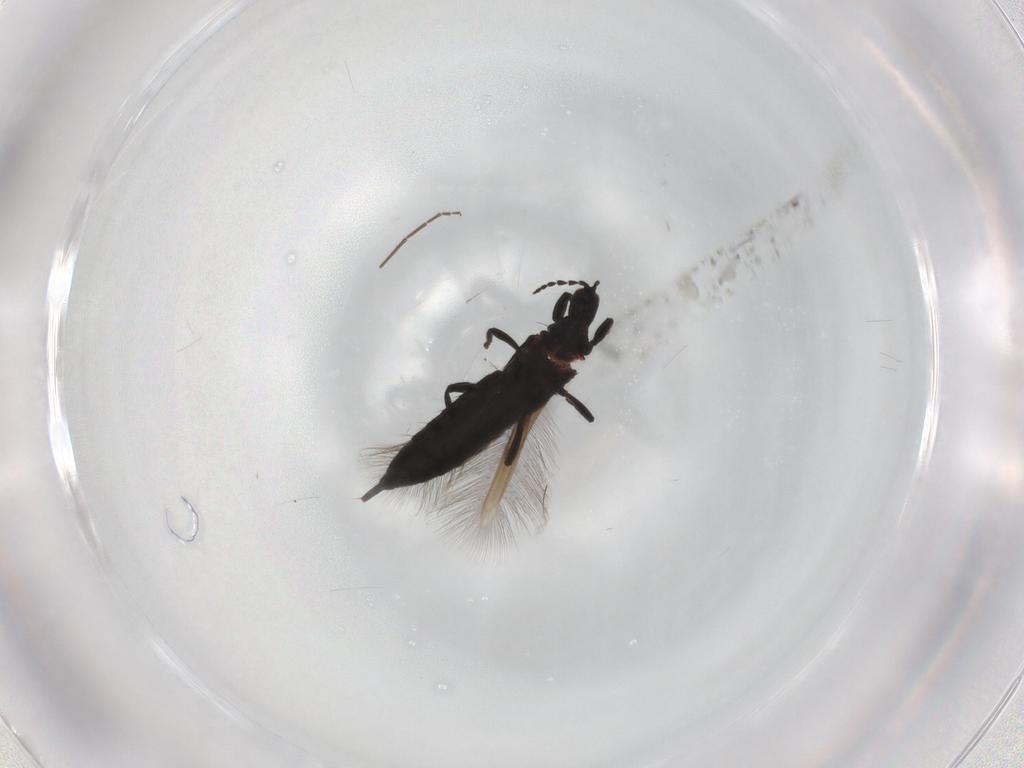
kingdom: Animalia
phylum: Arthropoda
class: Insecta
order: Thysanoptera
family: Phlaeothripidae
